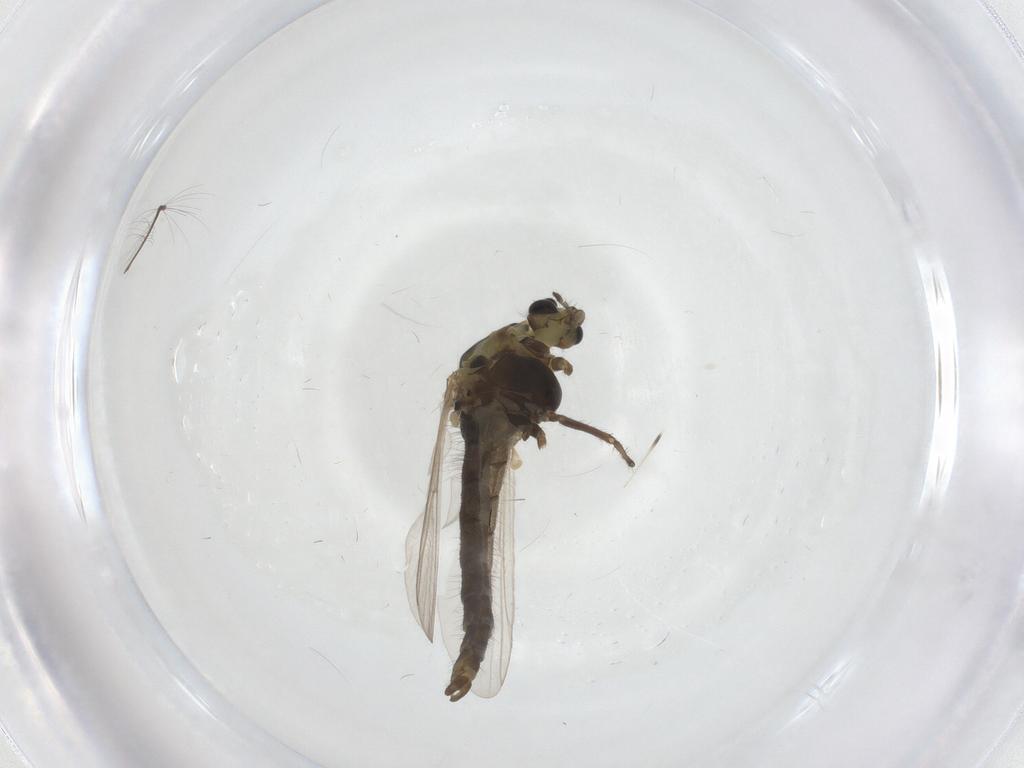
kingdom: Animalia
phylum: Arthropoda
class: Insecta
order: Diptera
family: Chironomidae
